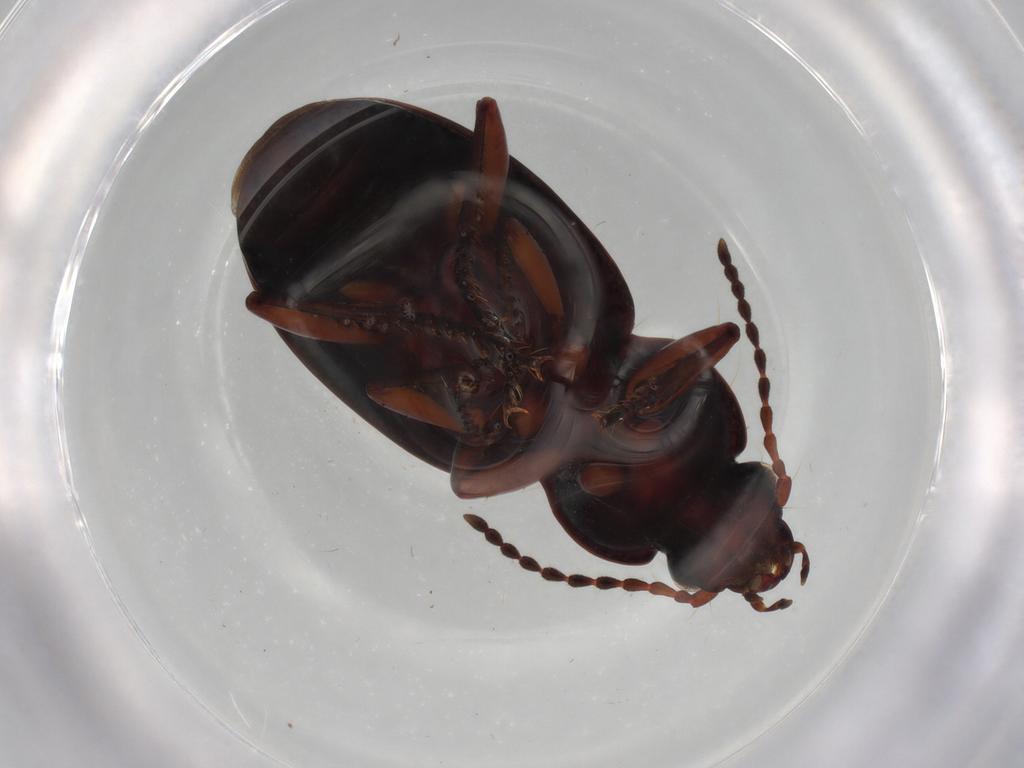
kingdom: Animalia
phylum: Arthropoda
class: Insecta
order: Coleoptera
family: Carabidae
